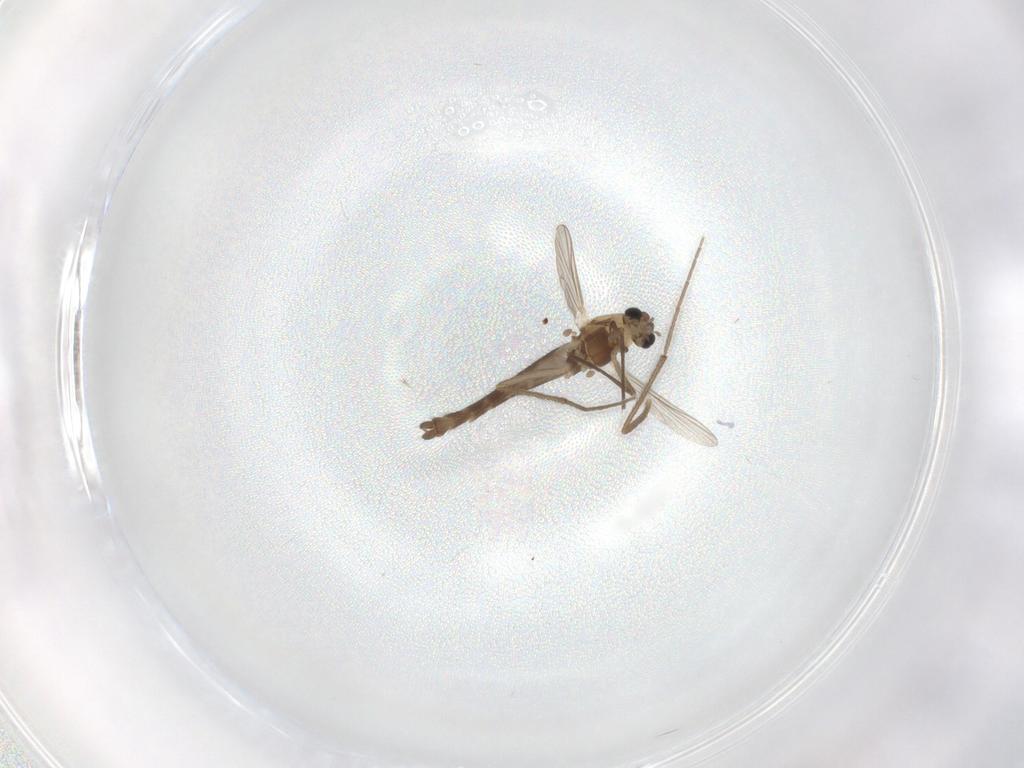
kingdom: Animalia
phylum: Arthropoda
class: Insecta
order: Diptera
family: Chironomidae
